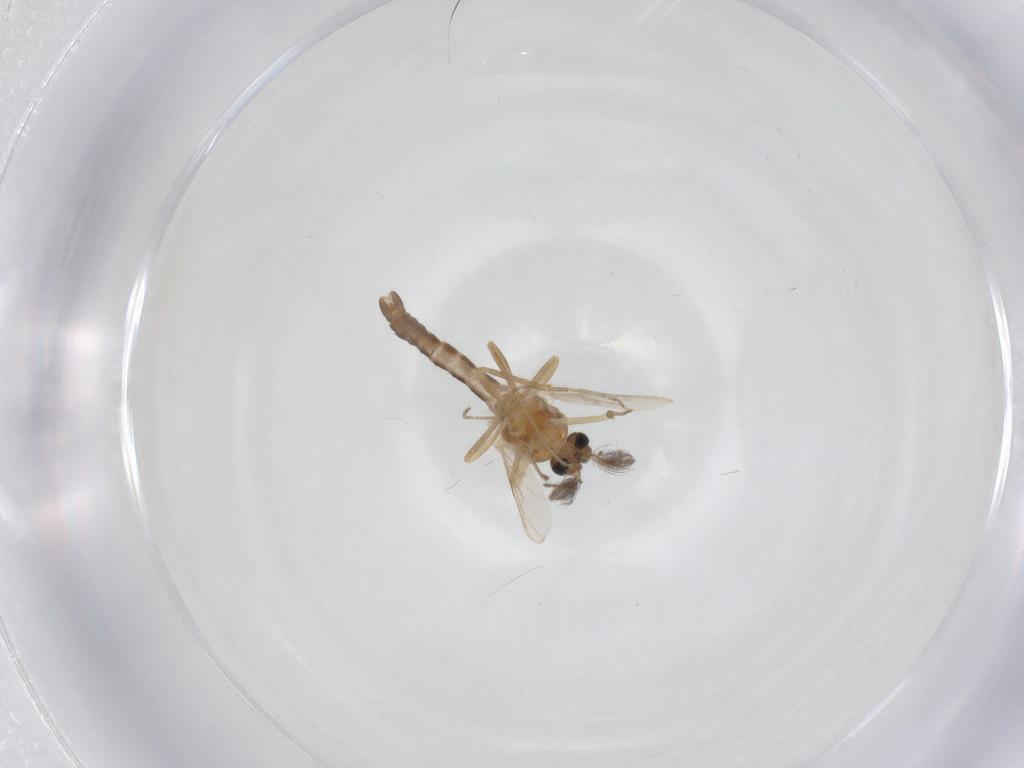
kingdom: Animalia
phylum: Arthropoda
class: Insecta
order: Diptera
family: Ceratopogonidae
